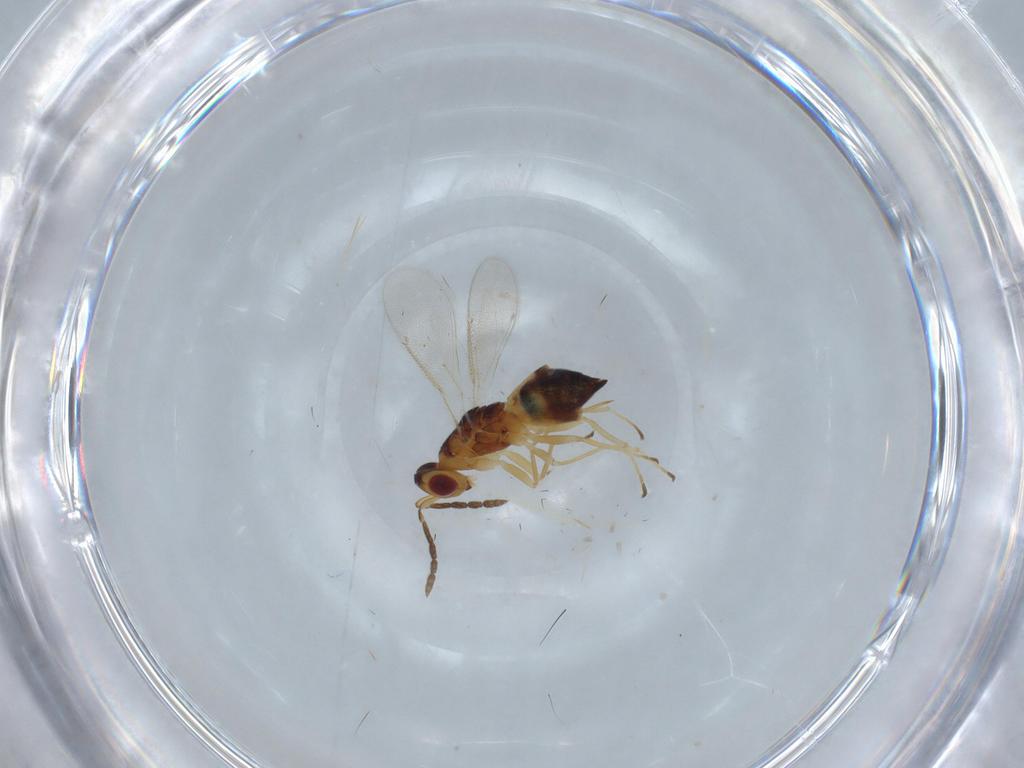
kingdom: Animalia
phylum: Arthropoda
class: Insecta
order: Hymenoptera
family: Eulophidae
